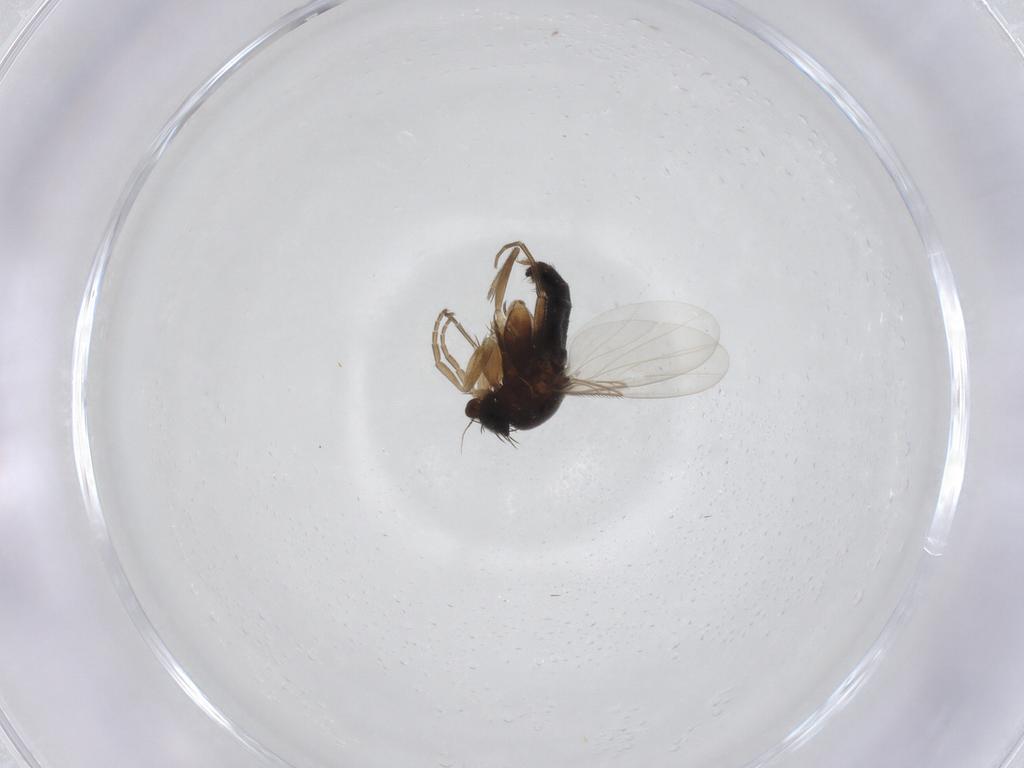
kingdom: Animalia
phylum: Arthropoda
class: Insecta
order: Diptera
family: Phoridae
